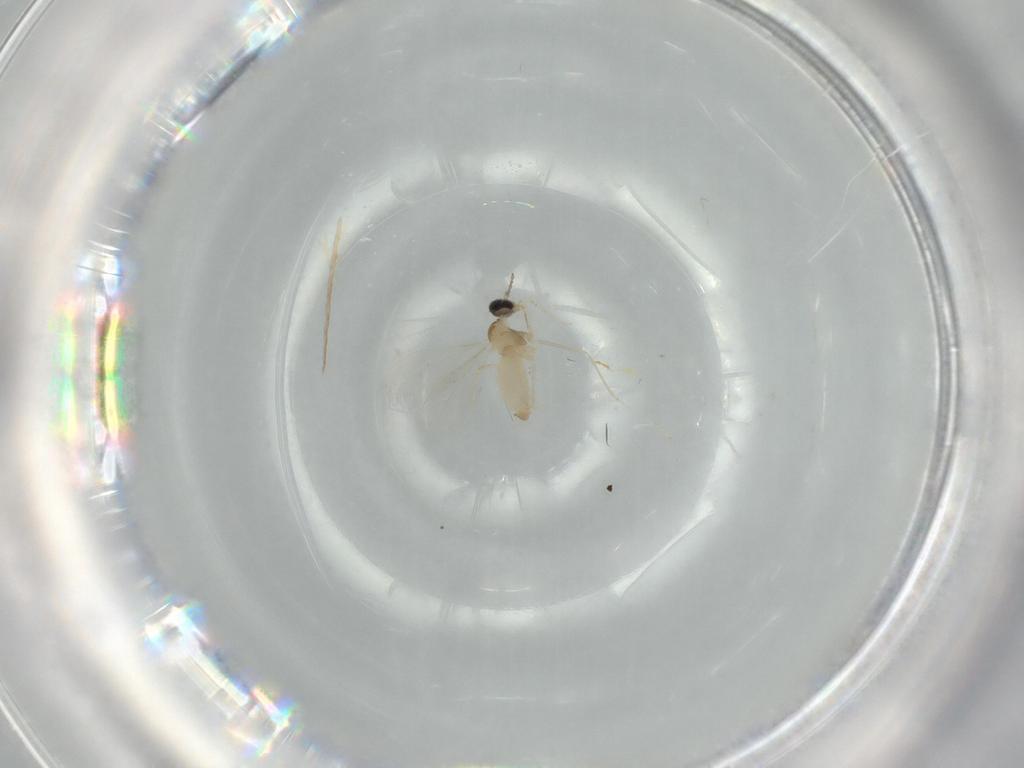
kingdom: Animalia
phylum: Arthropoda
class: Insecta
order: Diptera
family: Cecidomyiidae
